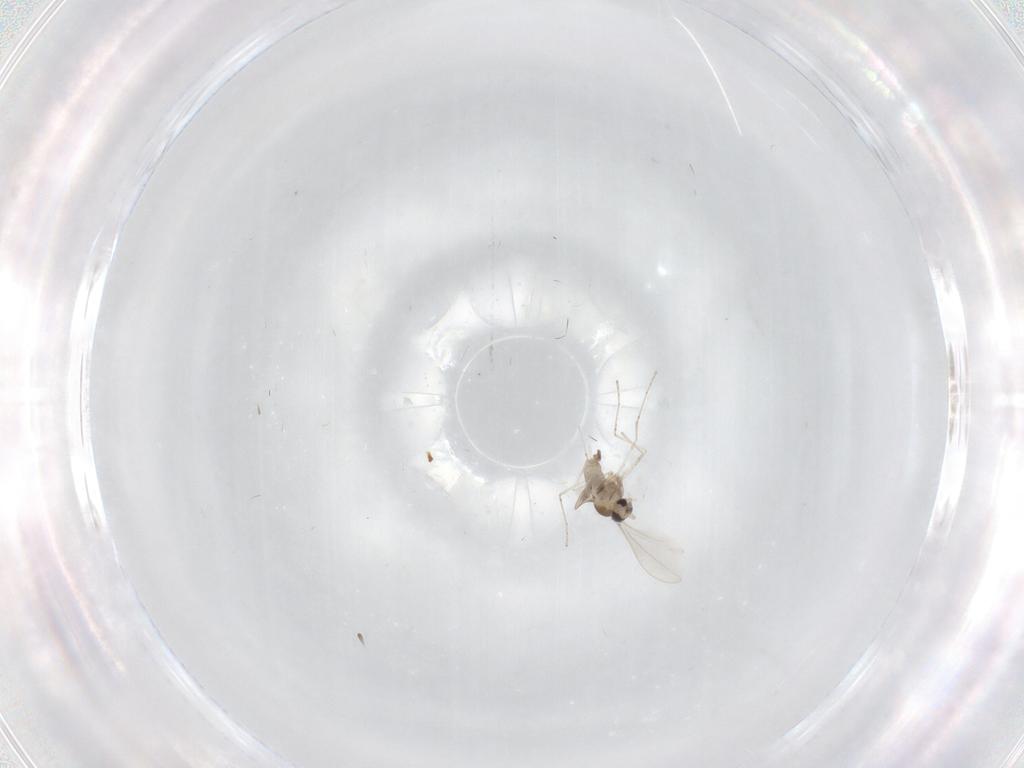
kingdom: Animalia
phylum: Arthropoda
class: Insecta
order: Diptera
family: Cecidomyiidae
